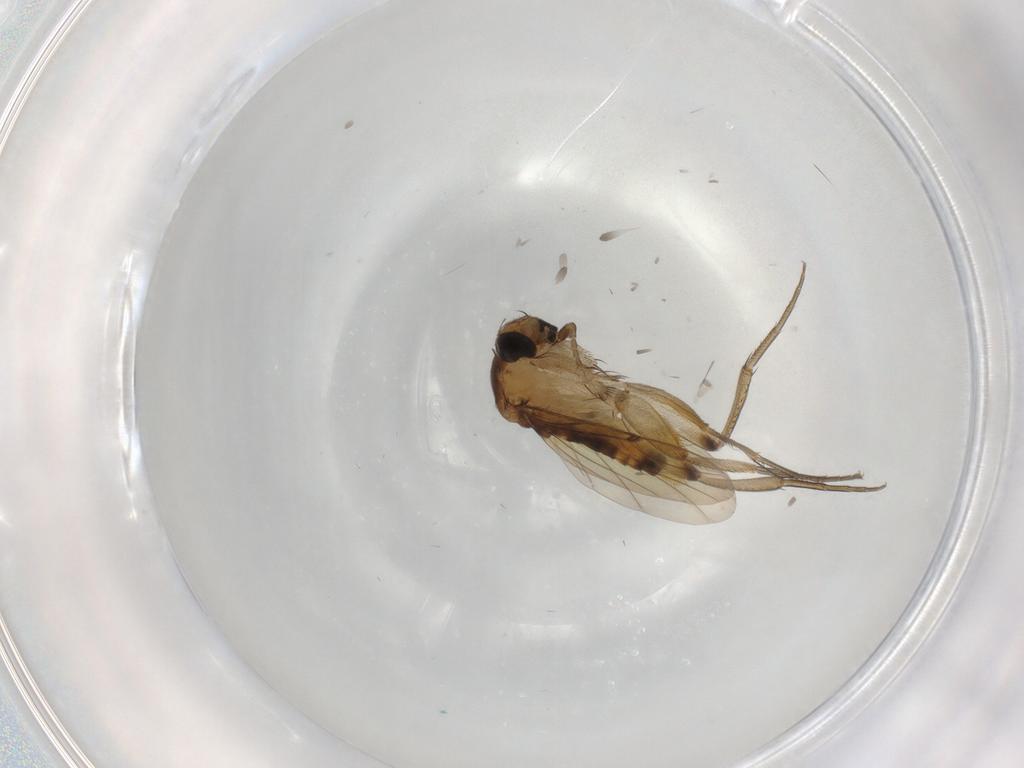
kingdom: Animalia
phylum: Arthropoda
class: Insecta
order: Diptera
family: Phoridae
